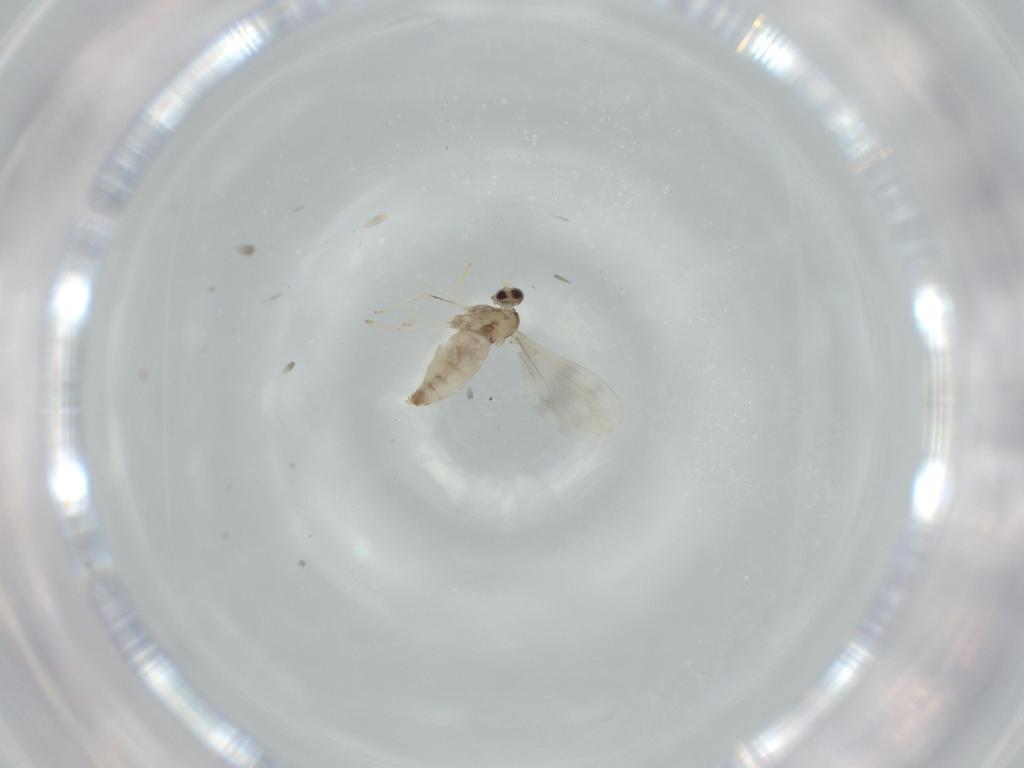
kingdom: Animalia
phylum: Arthropoda
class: Insecta
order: Diptera
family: Cecidomyiidae
